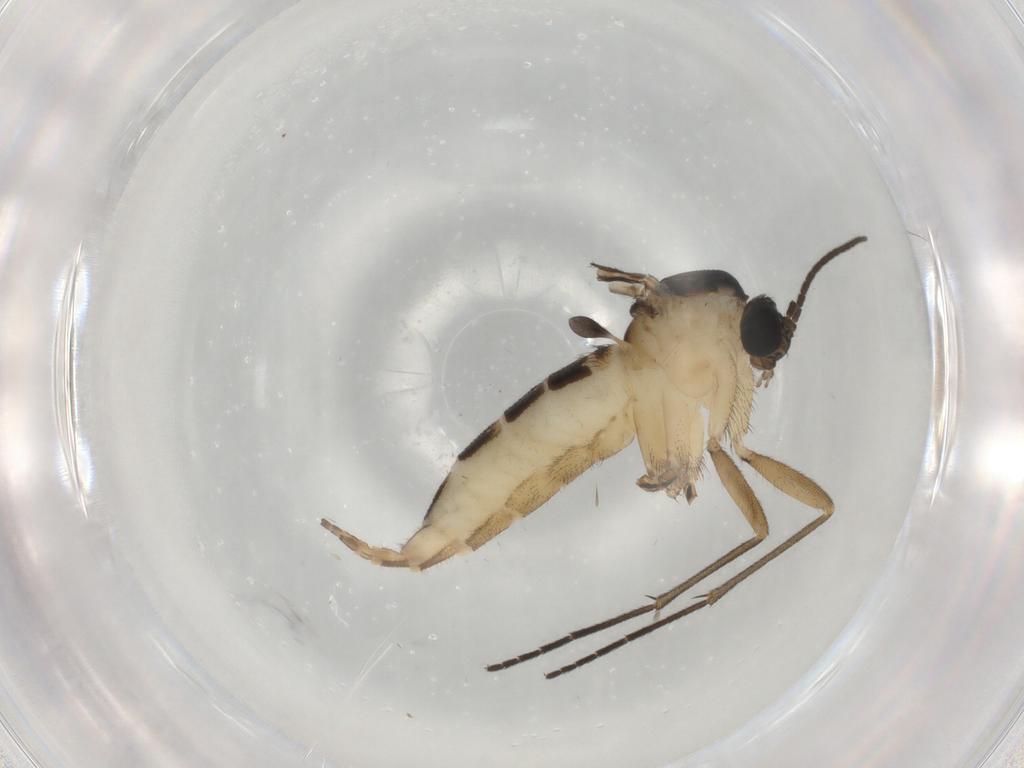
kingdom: Animalia
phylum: Arthropoda
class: Insecta
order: Diptera
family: Sciaridae
